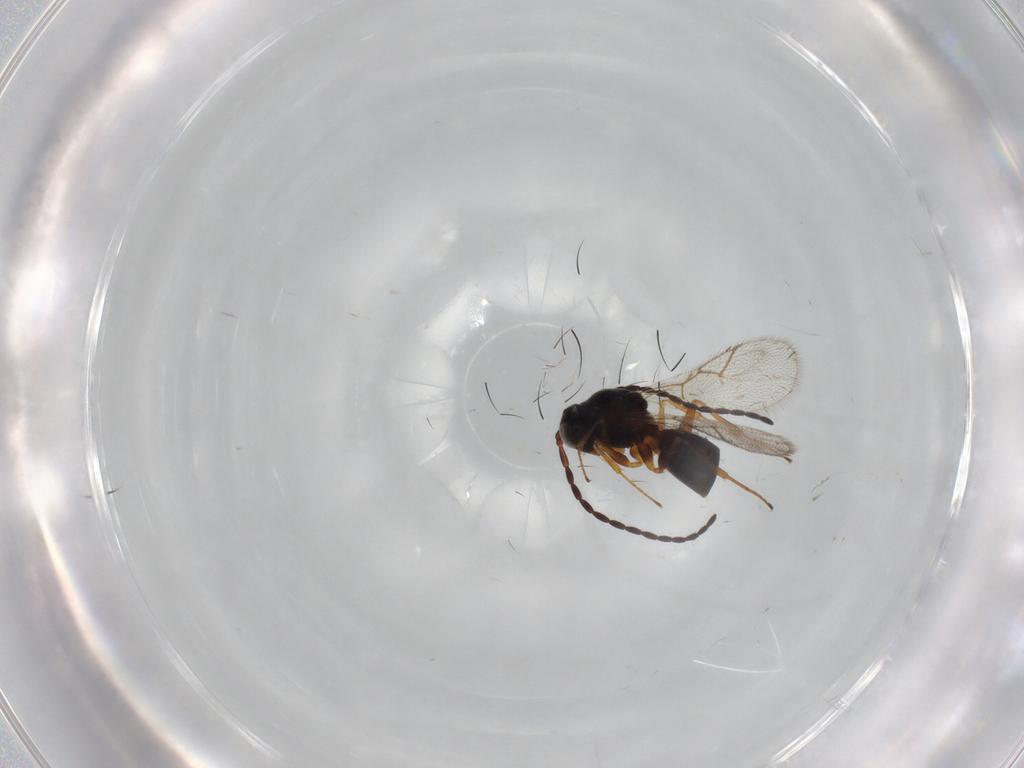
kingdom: Animalia
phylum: Arthropoda
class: Insecta
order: Hymenoptera
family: Figitidae
